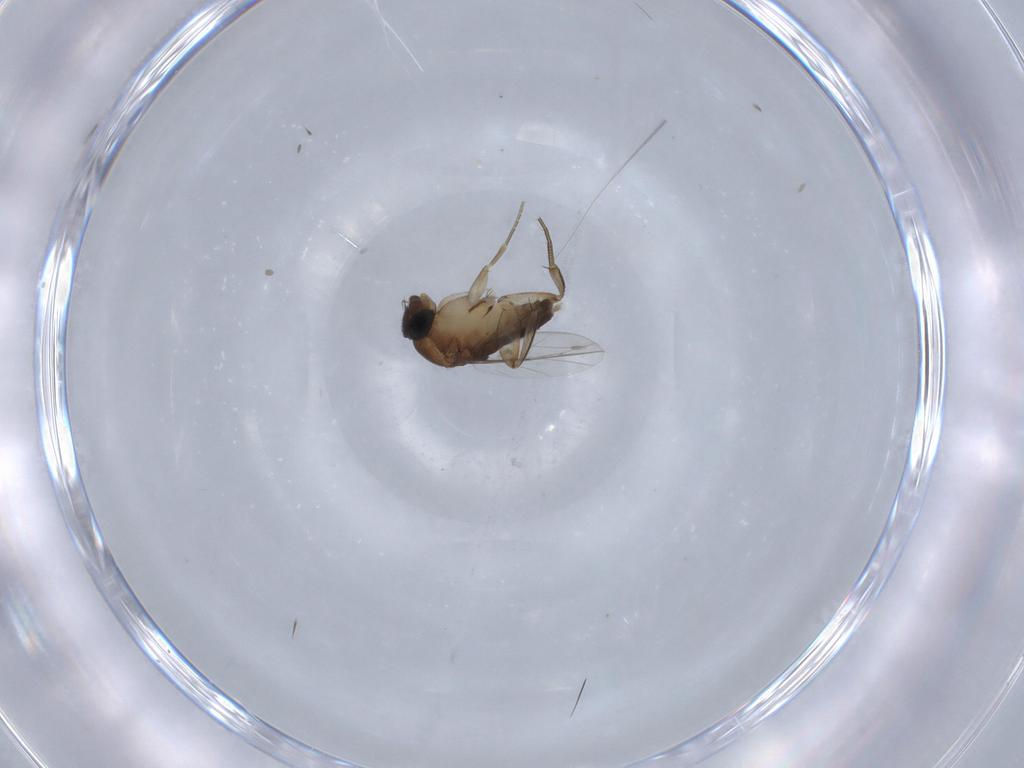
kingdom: Animalia
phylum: Arthropoda
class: Insecta
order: Diptera
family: Phoridae
